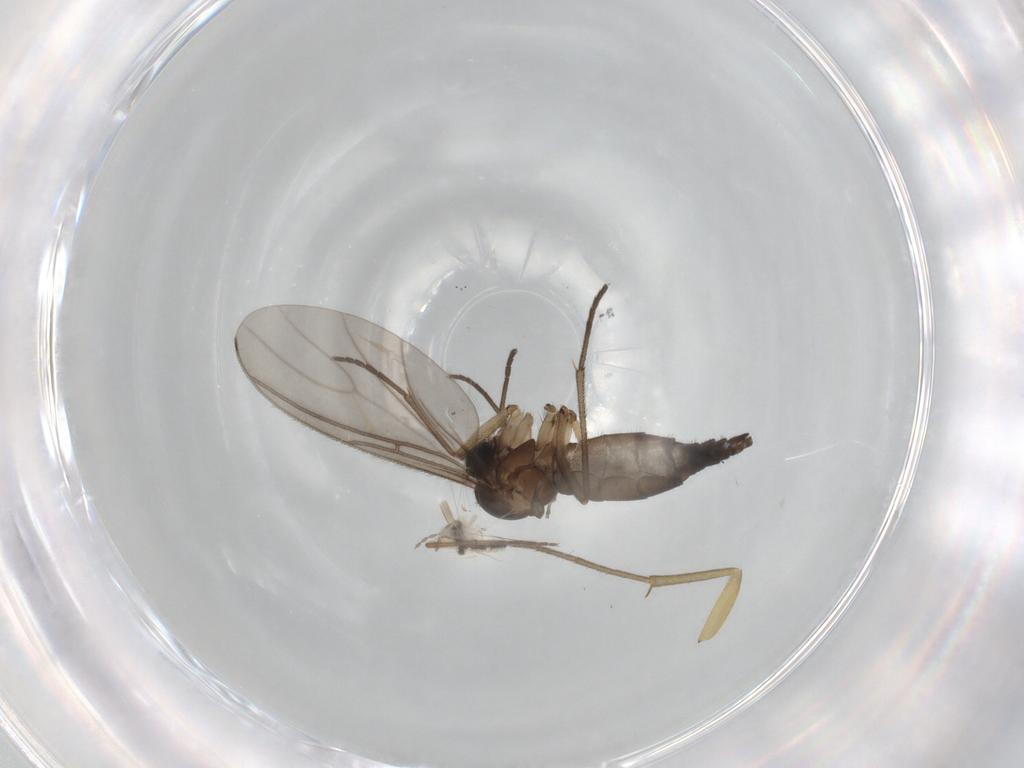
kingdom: Animalia
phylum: Arthropoda
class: Insecta
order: Diptera
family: Sciaridae
